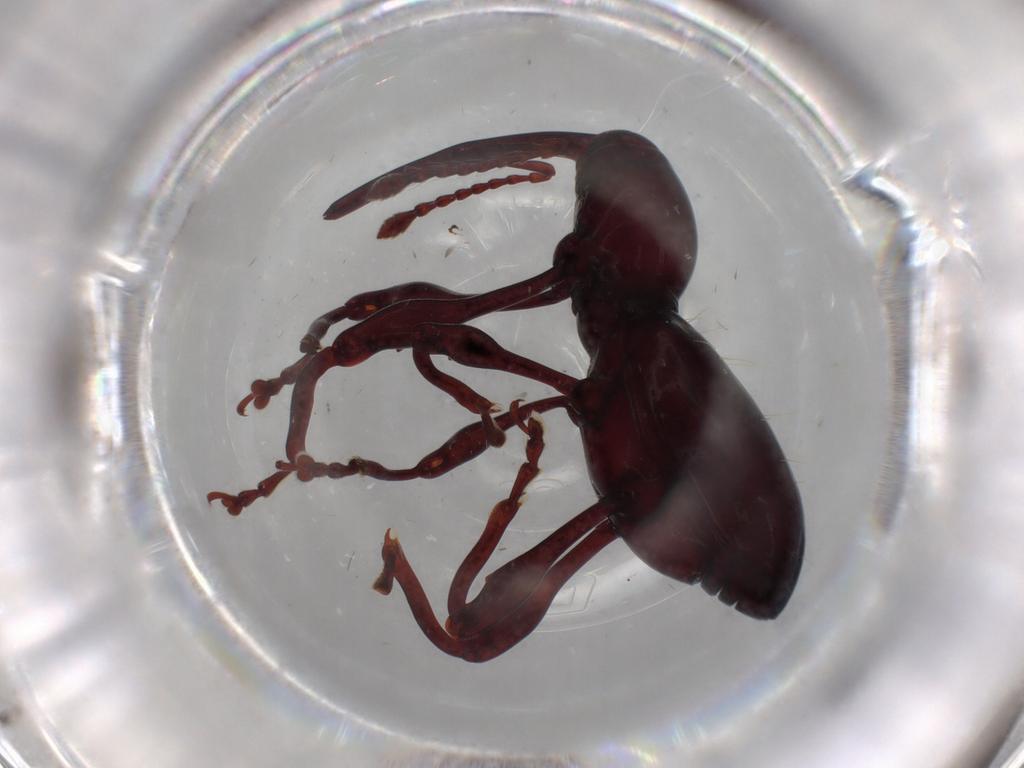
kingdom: Animalia
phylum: Arthropoda
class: Insecta
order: Coleoptera
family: Curculionidae
